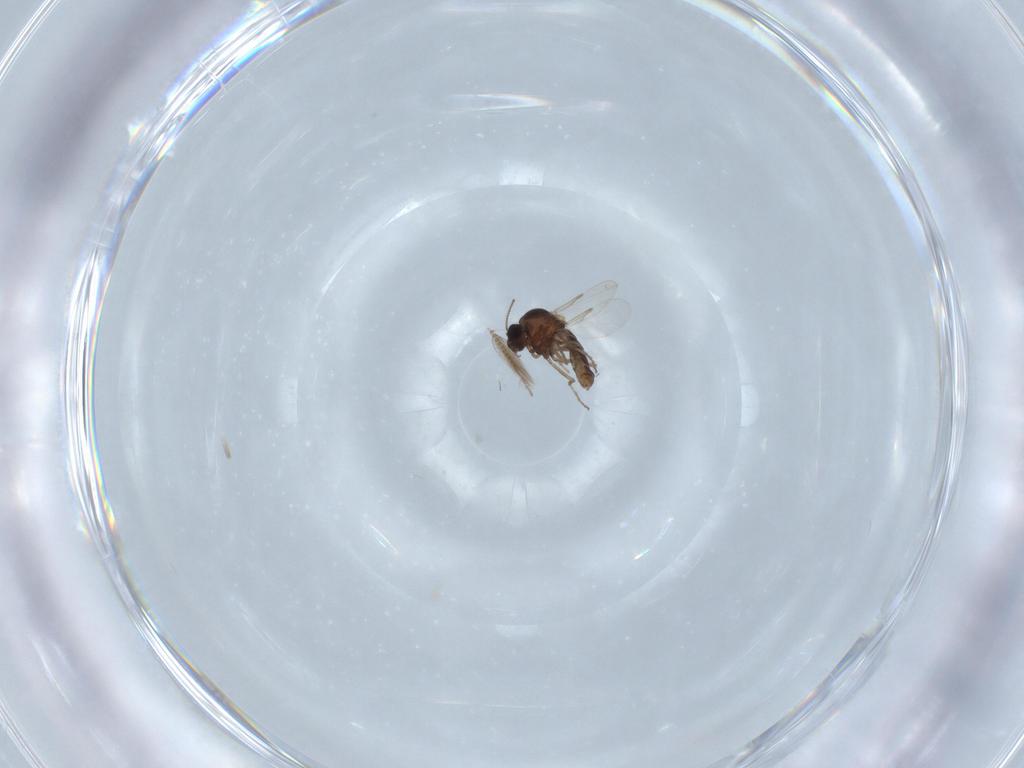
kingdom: Animalia
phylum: Arthropoda
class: Insecta
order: Diptera
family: Ceratopogonidae
